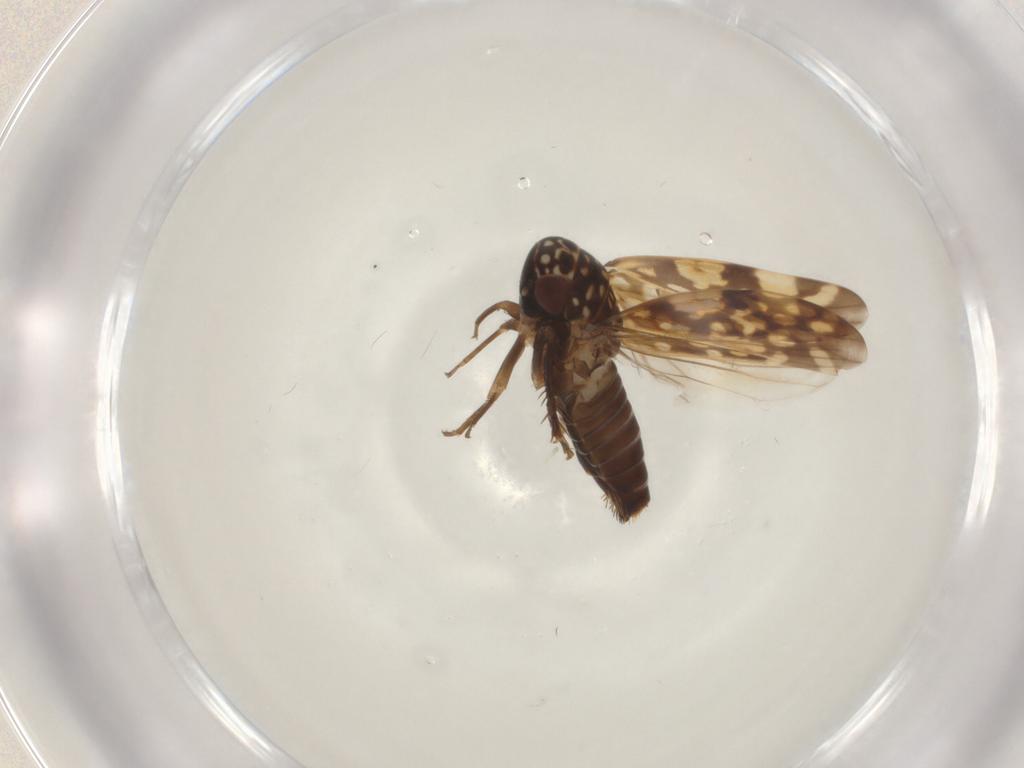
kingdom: Animalia
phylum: Arthropoda
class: Insecta
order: Hemiptera
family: Cicadellidae
